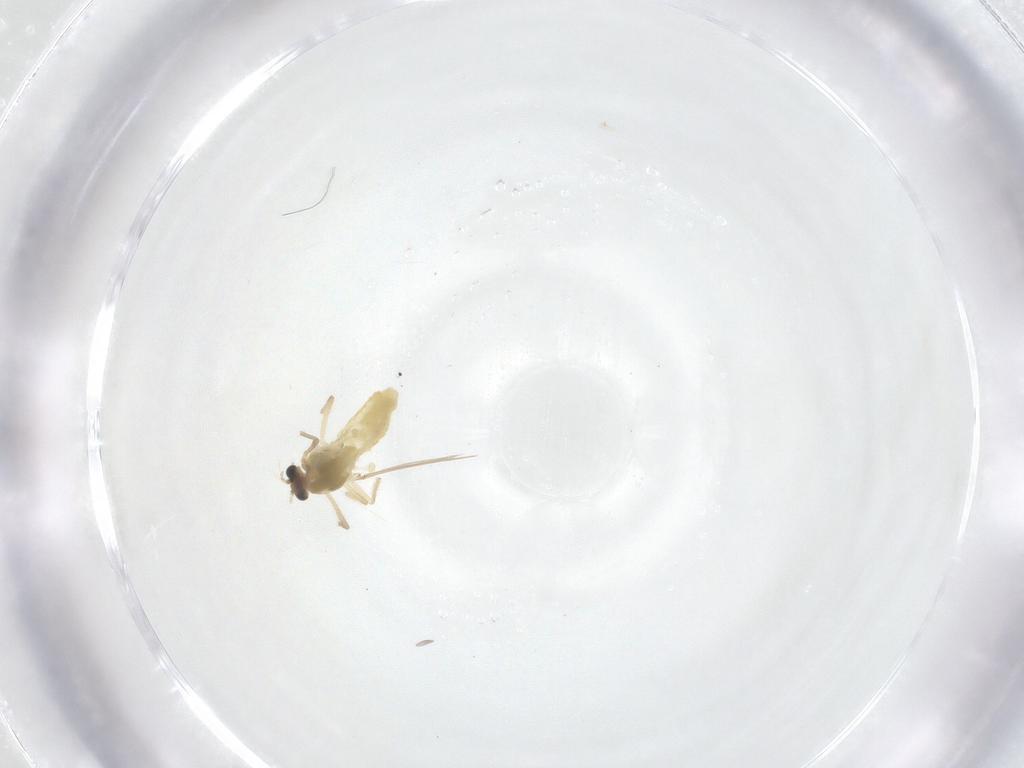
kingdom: Animalia
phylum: Arthropoda
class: Insecta
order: Diptera
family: Chironomidae
